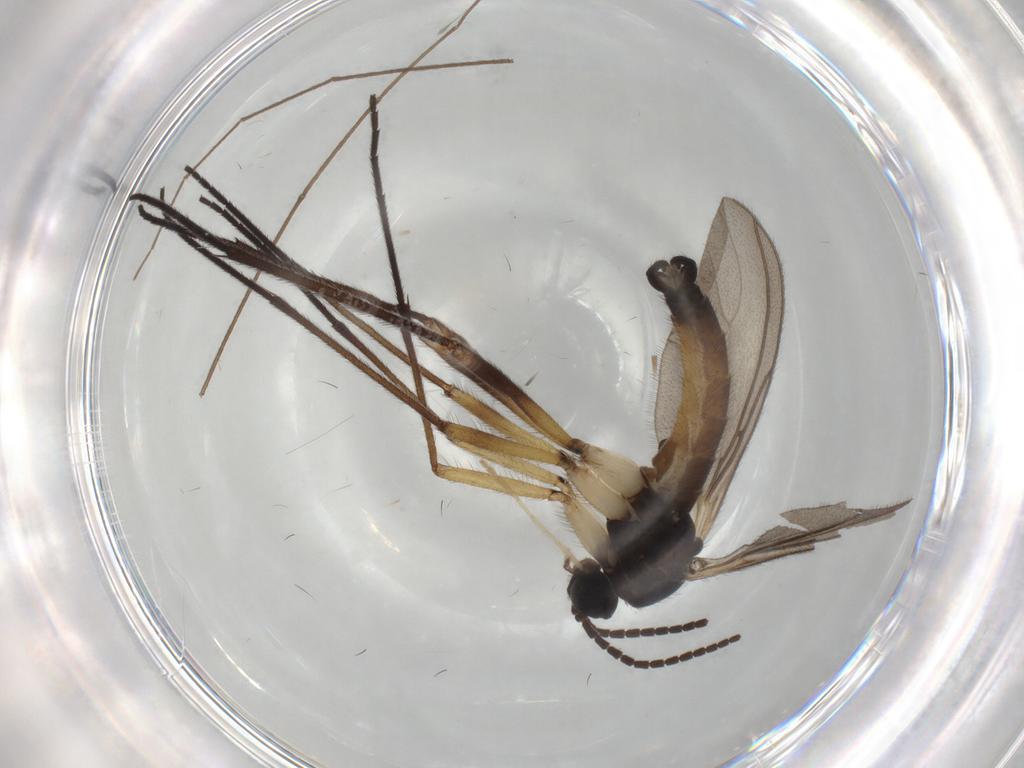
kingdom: Animalia
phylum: Arthropoda
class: Insecta
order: Diptera
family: Sciaridae
